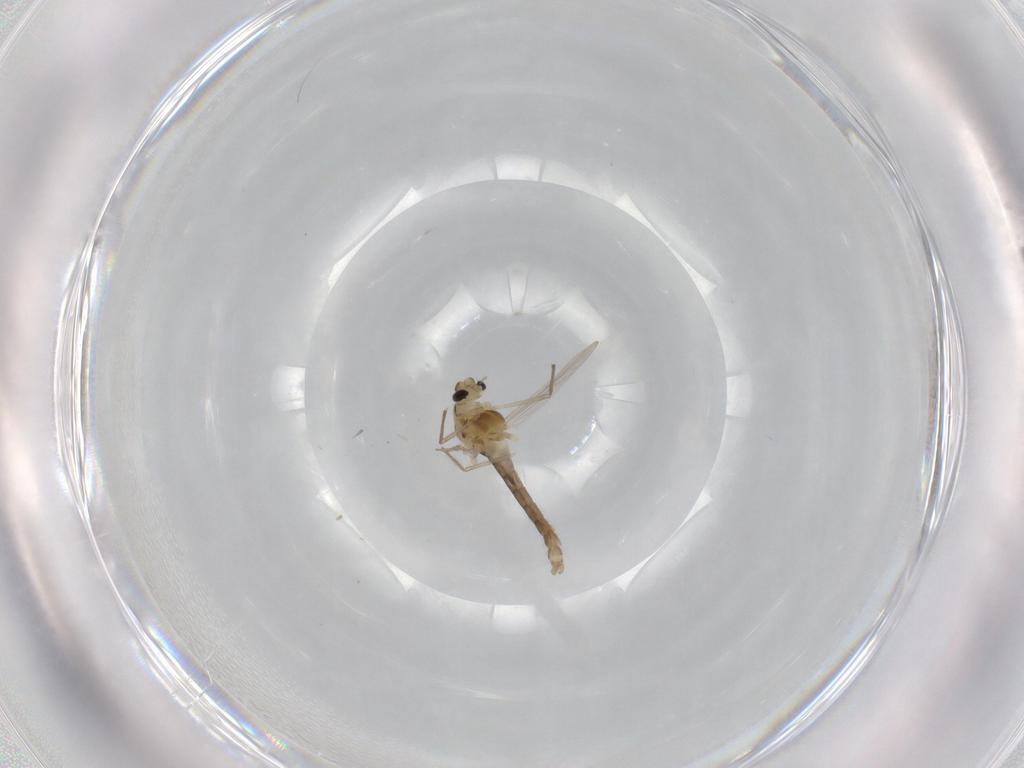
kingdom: Animalia
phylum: Arthropoda
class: Insecta
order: Diptera
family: Chironomidae
